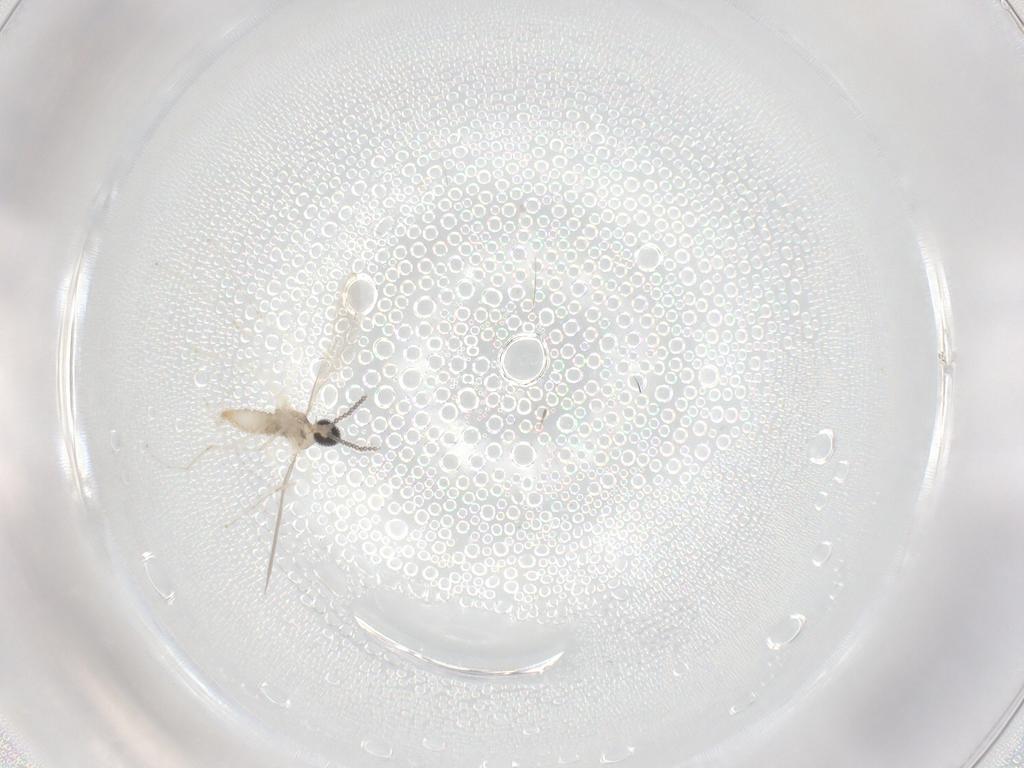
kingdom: Animalia
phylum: Arthropoda
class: Insecta
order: Diptera
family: Cecidomyiidae
